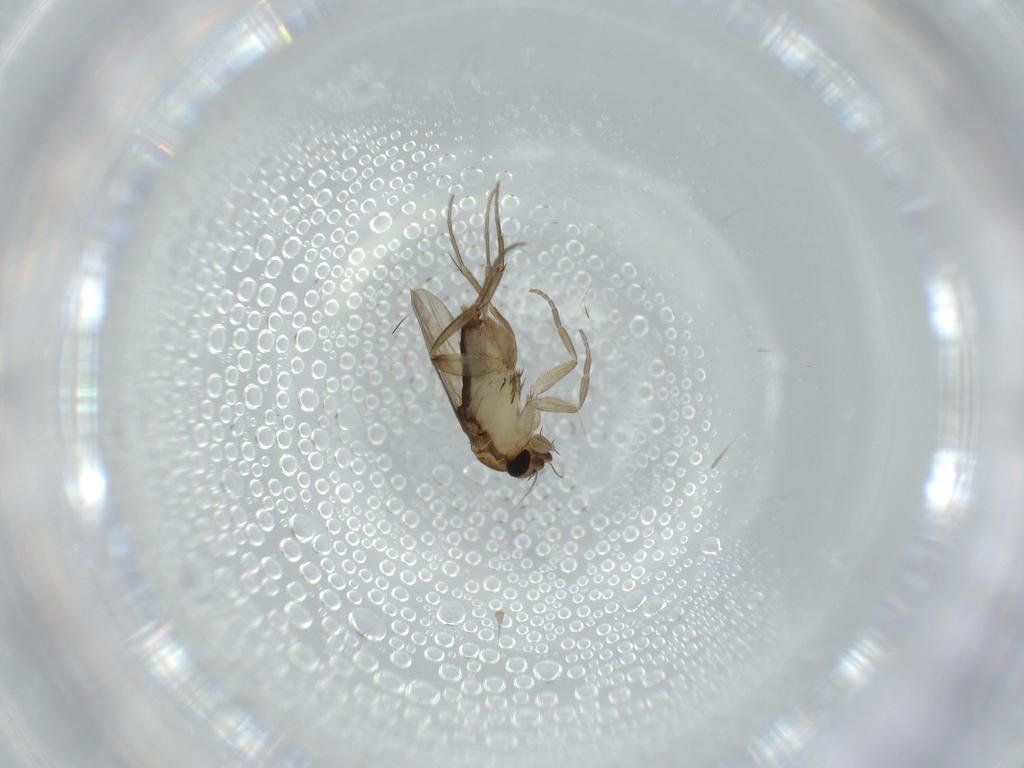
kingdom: Animalia
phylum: Arthropoda
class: Insecta
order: Diptera
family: Phoridae
